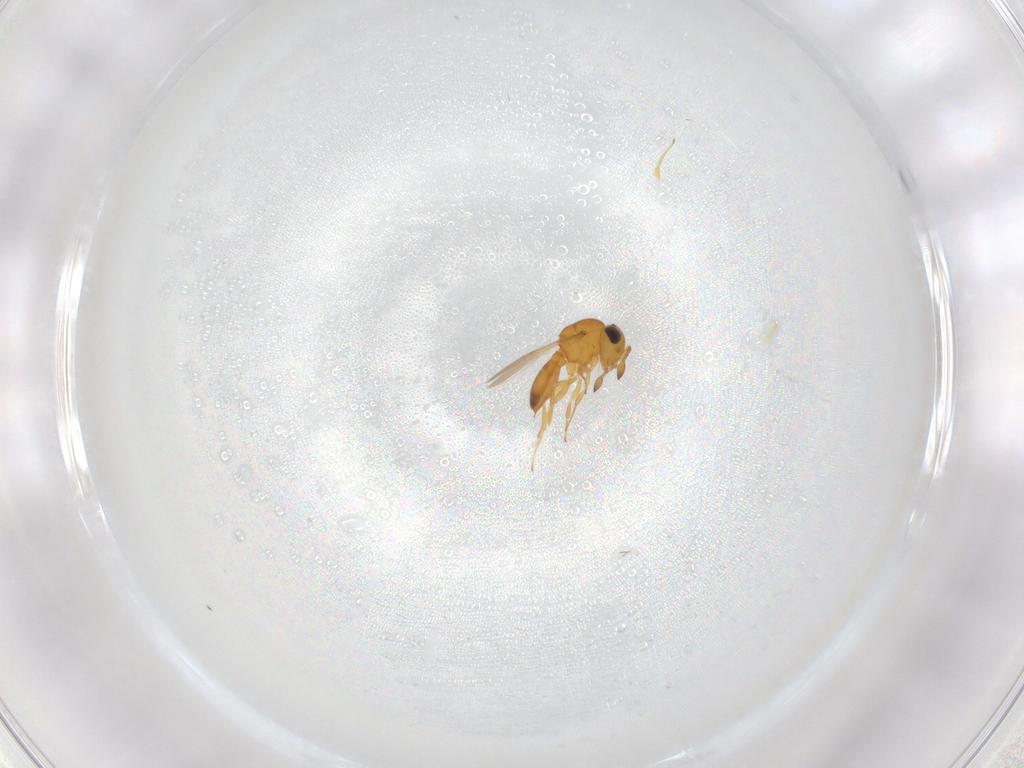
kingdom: Animalia
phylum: Arthropoda
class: Insecta
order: Hymenoptera
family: Scelionidae
